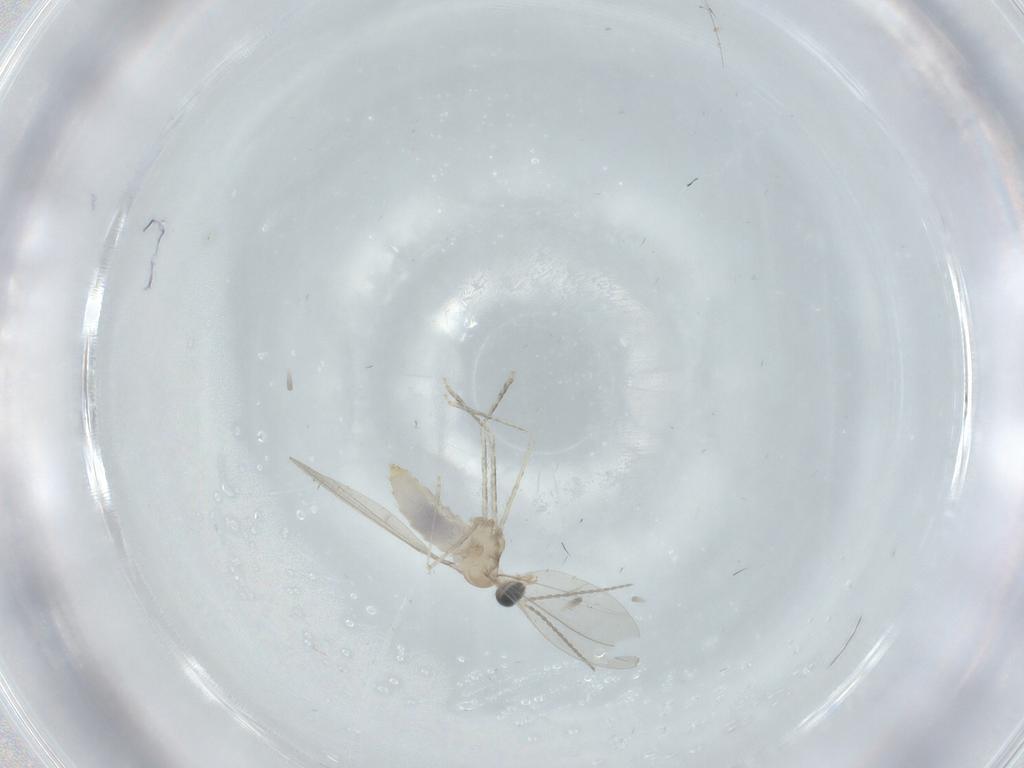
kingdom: Animalia
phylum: Arthropoda
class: Insecta
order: Diptera
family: Cecidomyiidae
